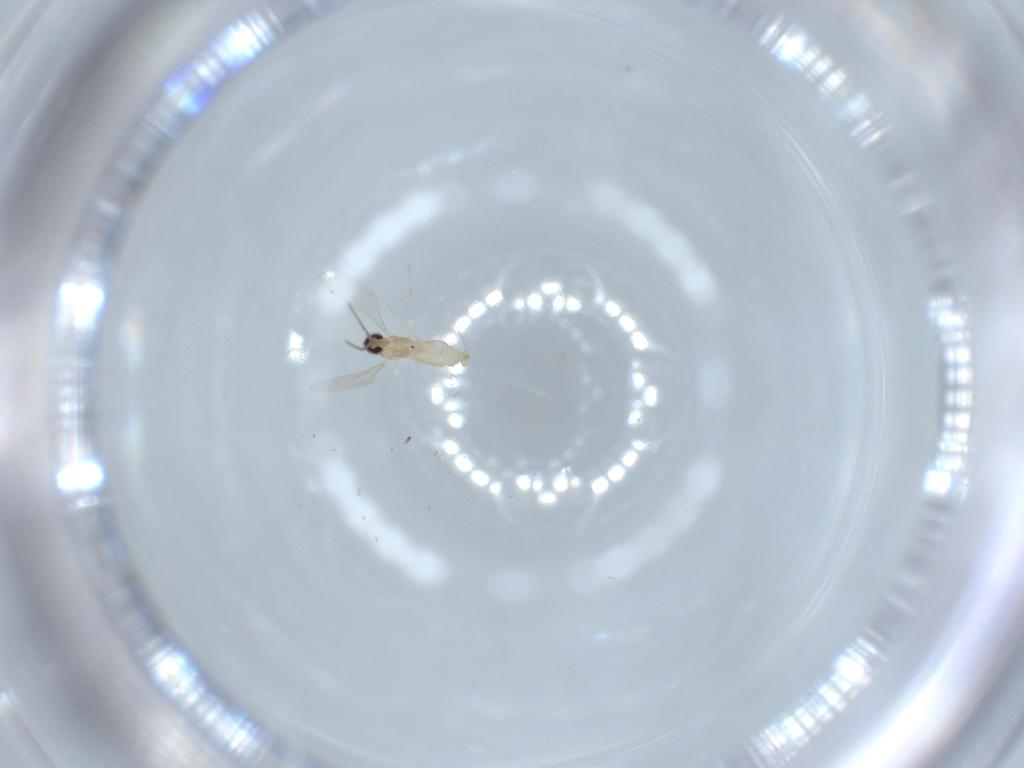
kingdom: Animalia
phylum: Arthropoda
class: Insecta
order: Diptera
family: Cecidomyiidae
